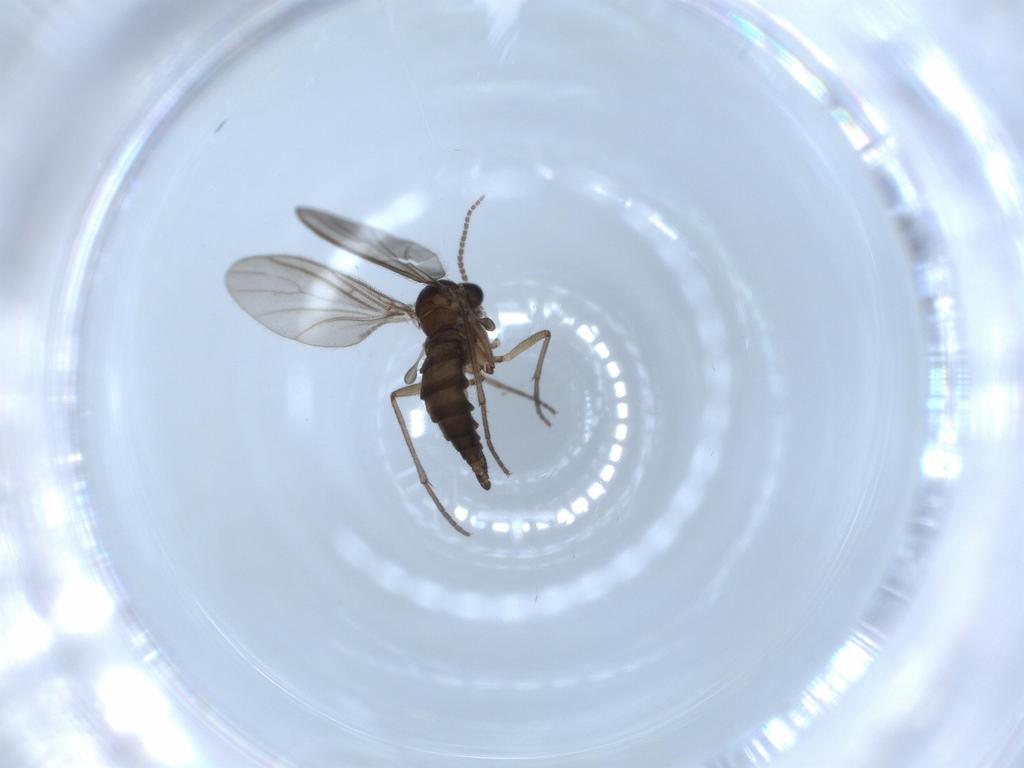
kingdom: Animalia
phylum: Arthropoda
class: Insecta
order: Diptera
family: Sciaridae
